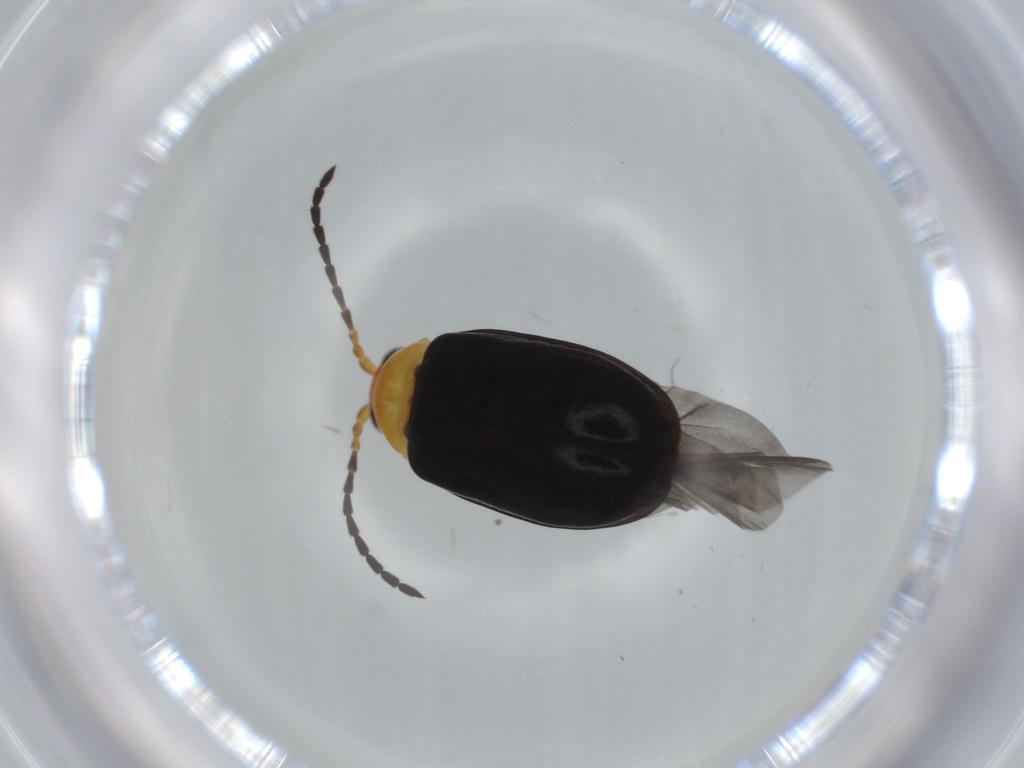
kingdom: Animalia
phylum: Arthropoda
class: Insecta
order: Coleoptera
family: Chrysomelidae
